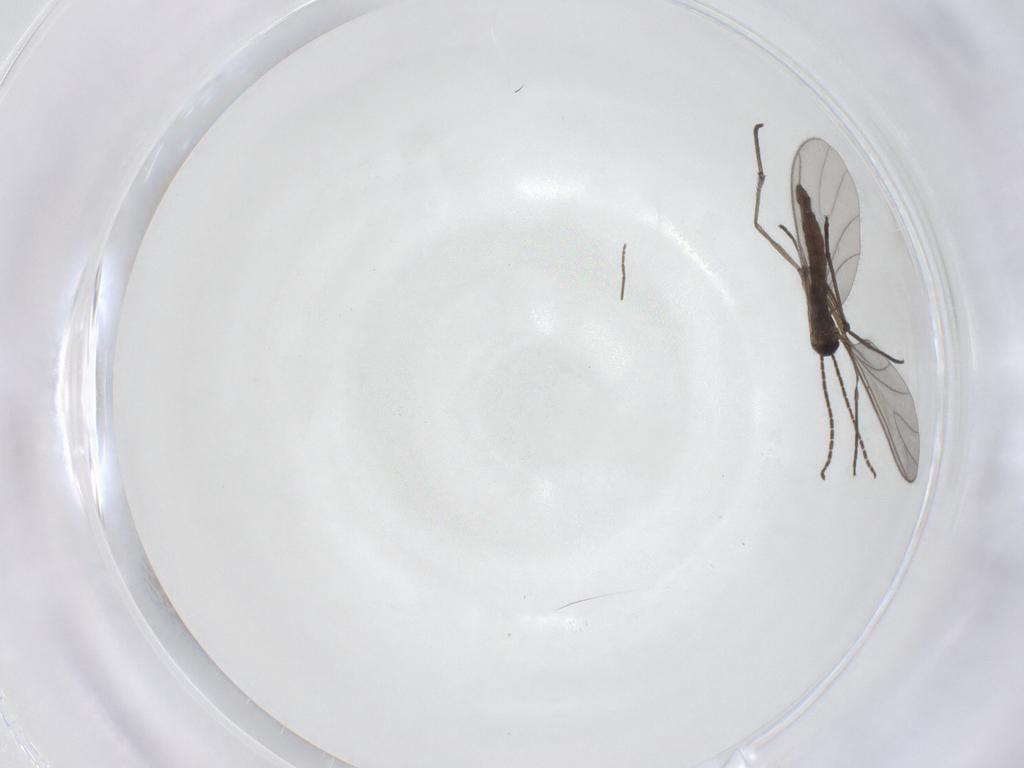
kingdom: Animalia
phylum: Arthropoda
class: Insecta
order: Diptera
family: Sciaridae
